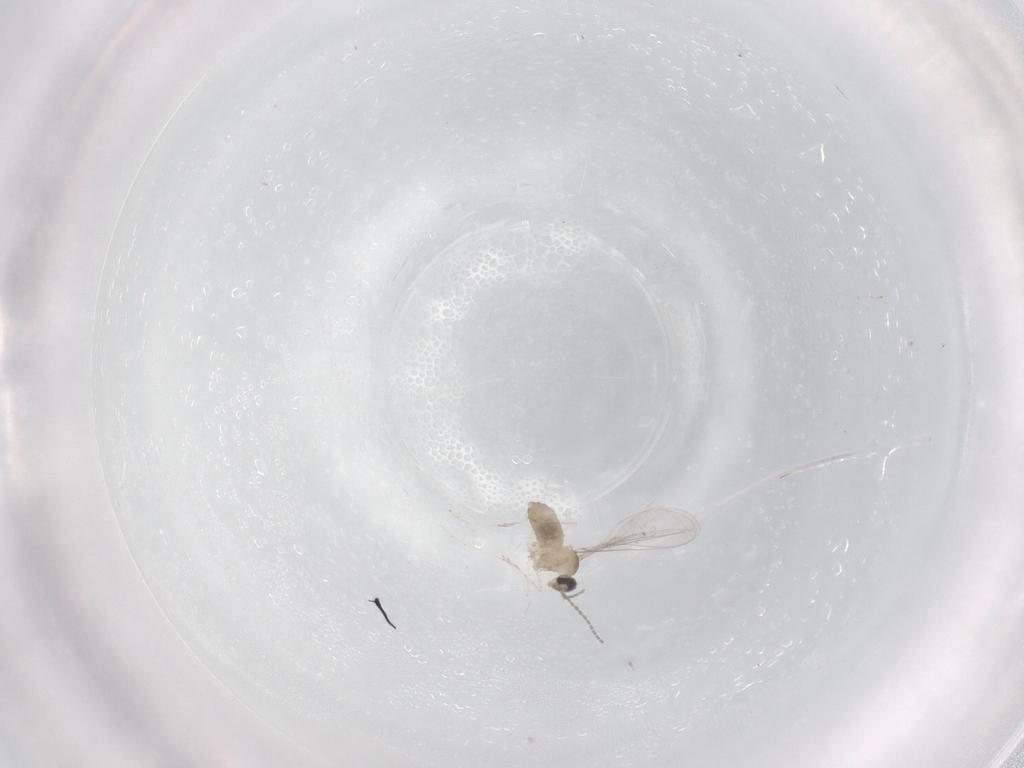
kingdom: Animalia
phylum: Arthropoda
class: Insecta
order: Diptera
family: Cecidomyiidae
